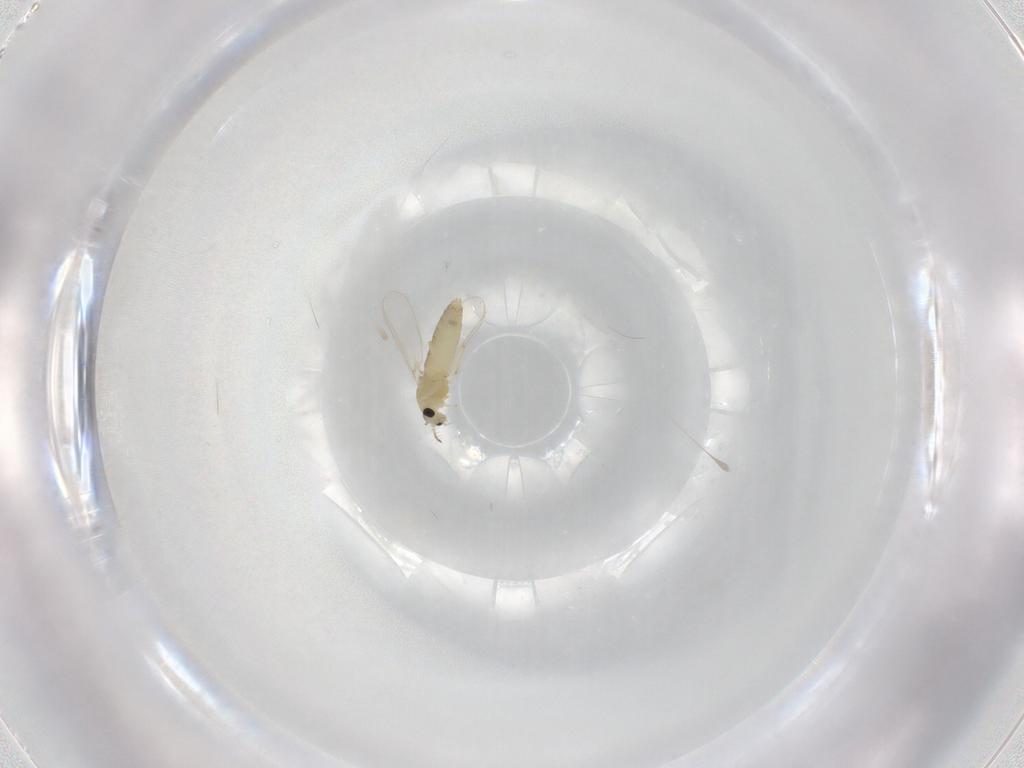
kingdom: Animalia
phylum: Arthropoda
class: Insecta
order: Diptera
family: Chironomidae
